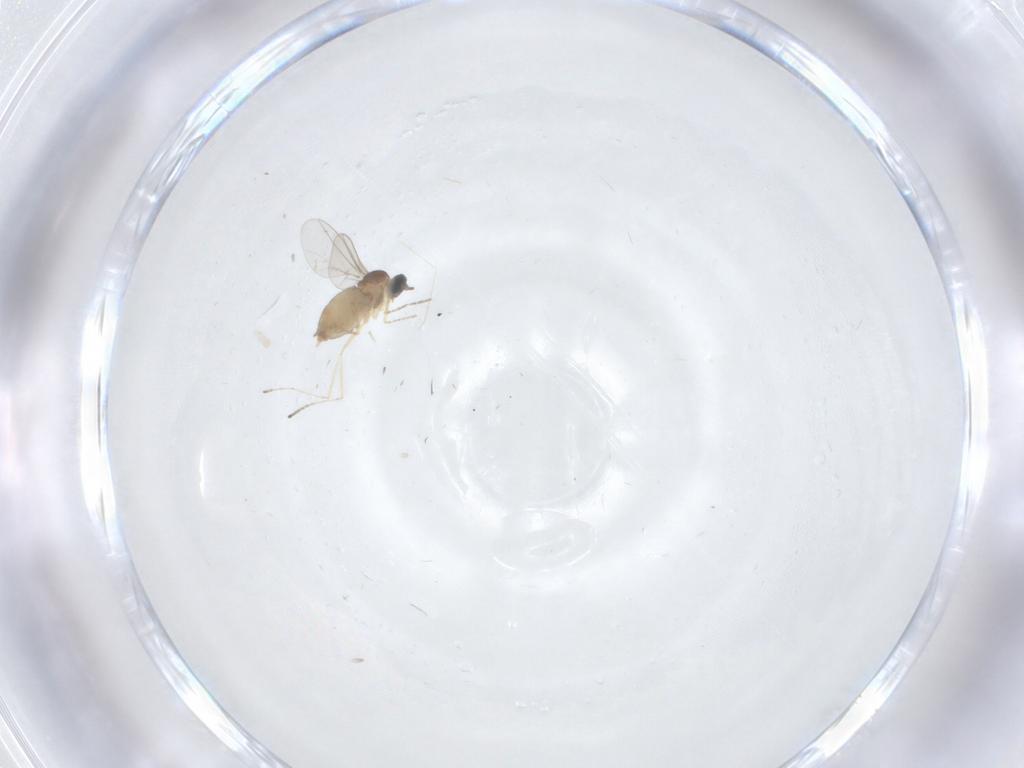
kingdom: Animalia
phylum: Arthropoda
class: Insecta
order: Diptera
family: Cecidomyiidae
